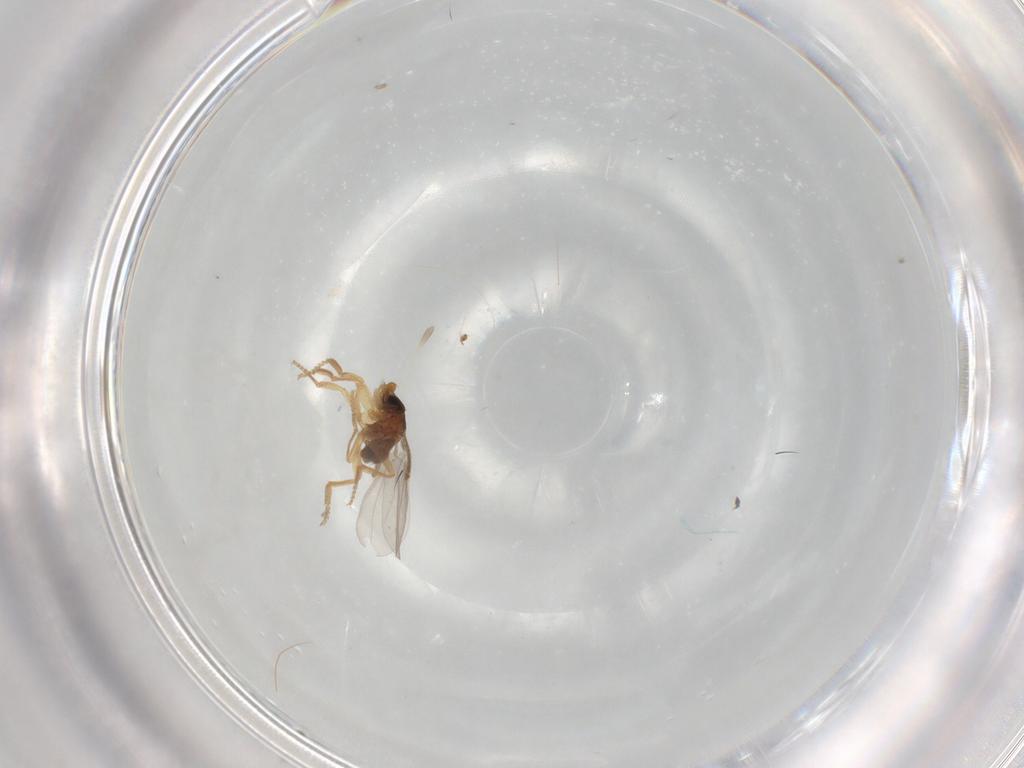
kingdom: Animalia
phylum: Arthropoda
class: Insecta
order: Diptera
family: Phoridae
